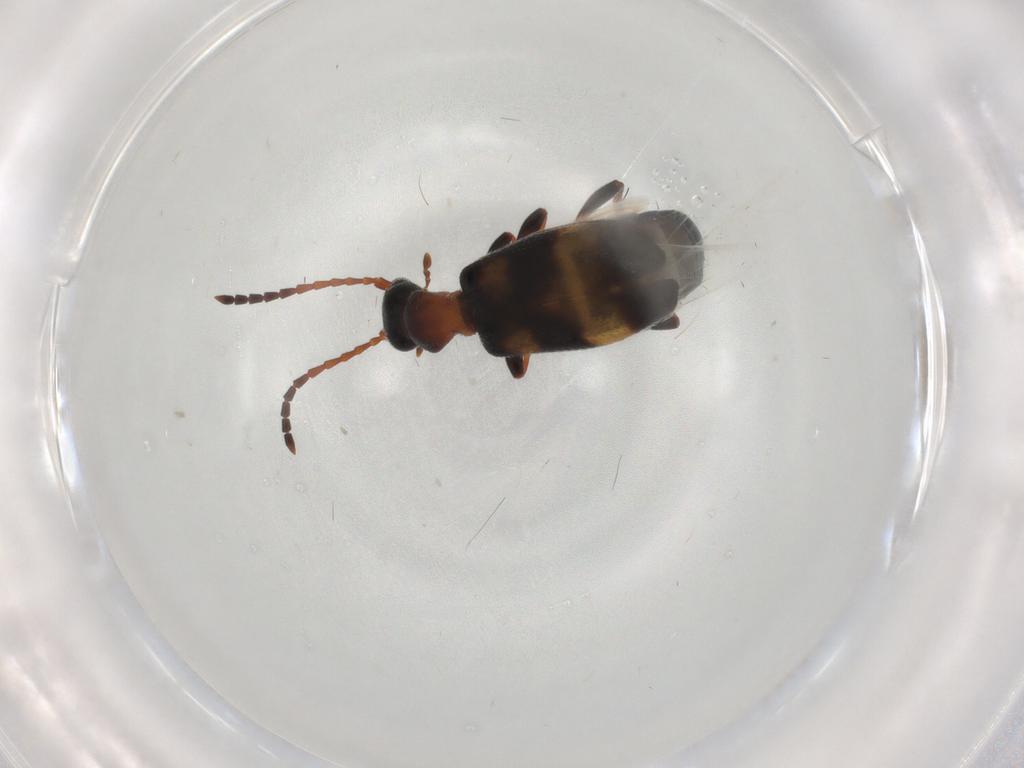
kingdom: Animalia
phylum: Arthropoda
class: Insecta
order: Coleoptera
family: Anthicidae
